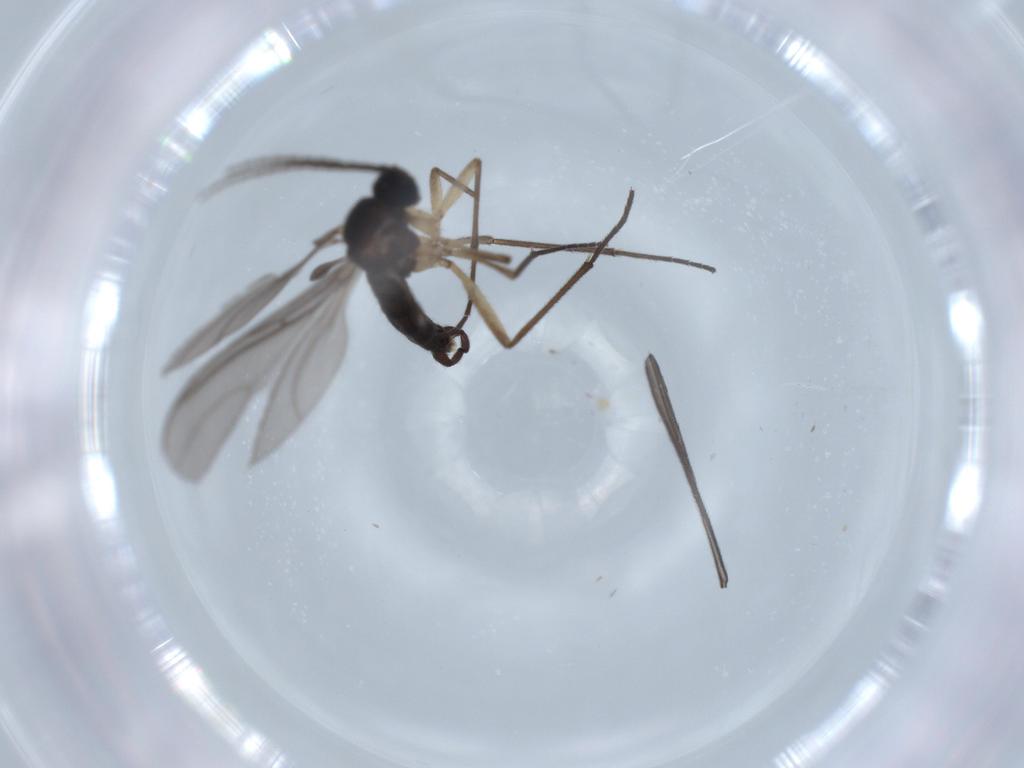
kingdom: Animalia
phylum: Arthropoda
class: Insecta
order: Diptera
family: Sciaridae
